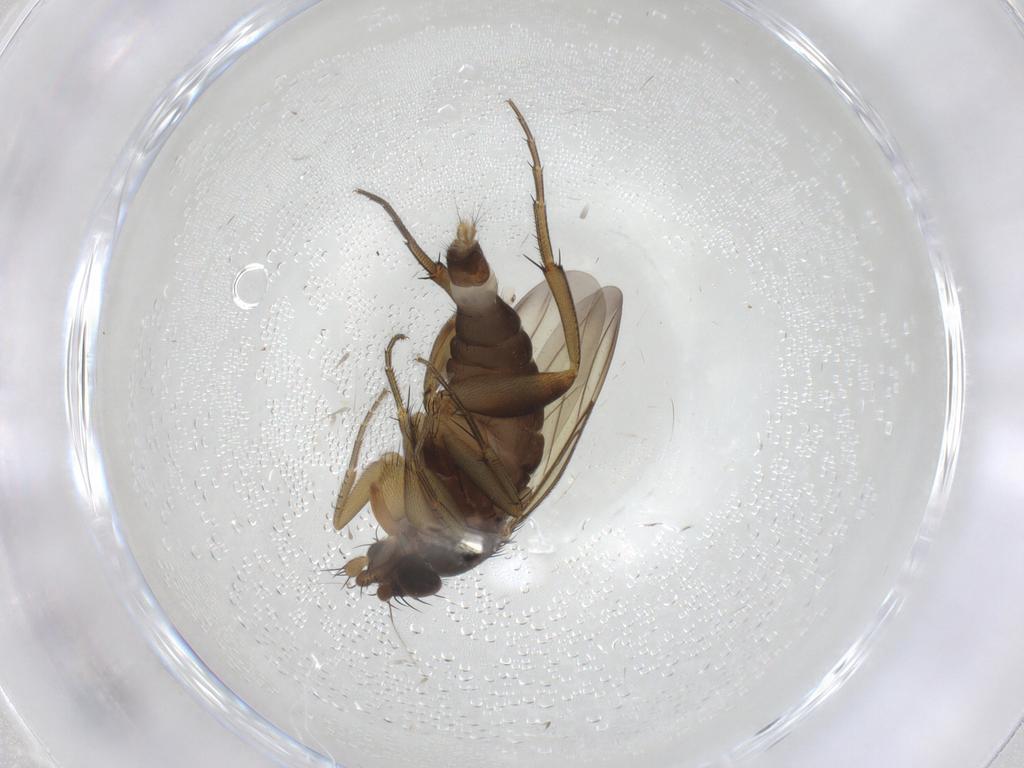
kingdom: Animalia
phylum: Arthropoda
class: Insecta
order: Diptera
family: Phoridae
